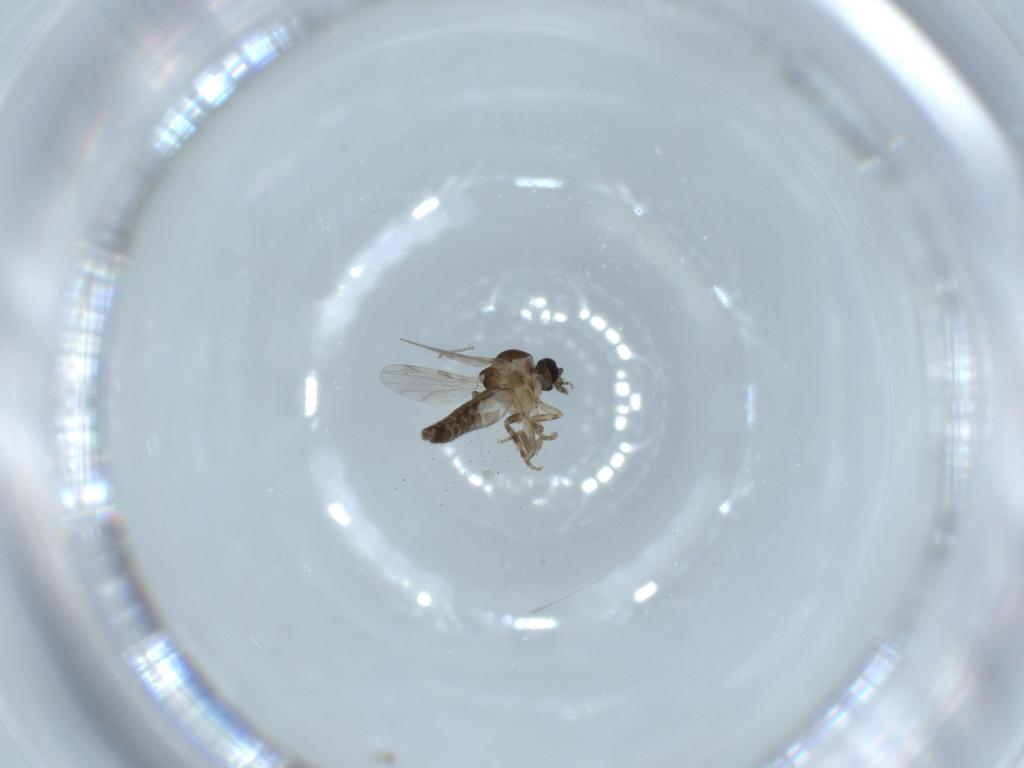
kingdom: Animalia
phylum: Arthropoda
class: Insecta
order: Diptera
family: Ceratopogonidae
